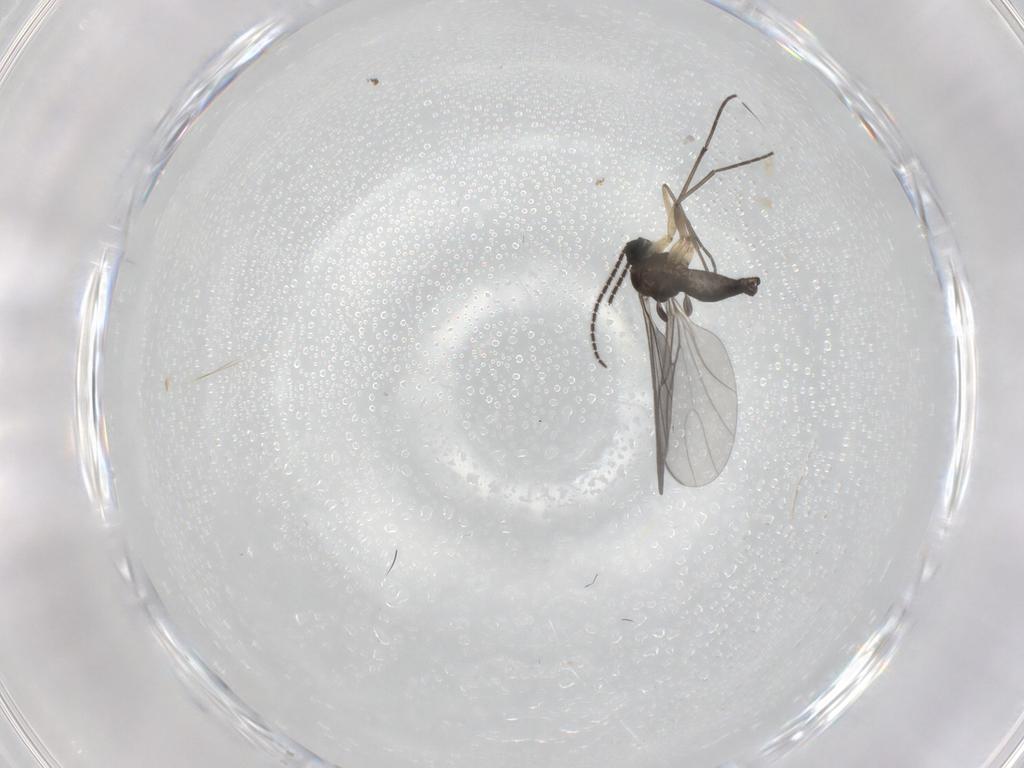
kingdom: Animalia
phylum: Arthropoda
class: Insecta
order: Diptera
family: Sciaridae
